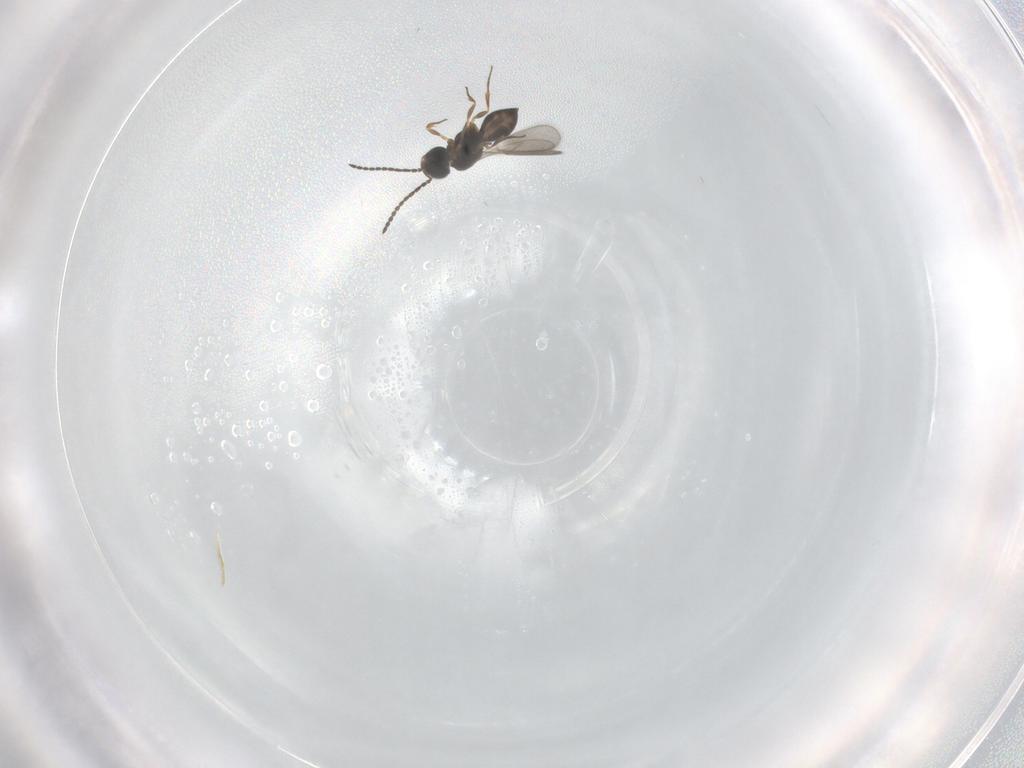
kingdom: Animalia
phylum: Arthropoda
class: Insecta
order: Hymenoptera
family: Scelionidae
